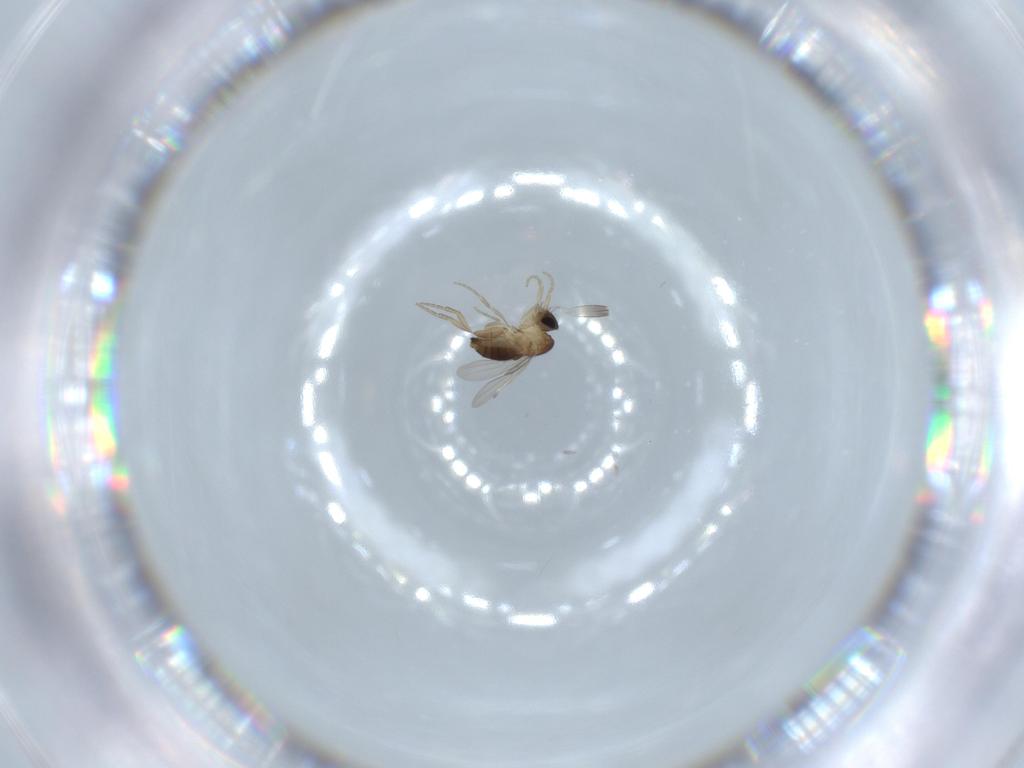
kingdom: Animalia
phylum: Arthropoda
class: Insecta
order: Diptera
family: Phoridae
